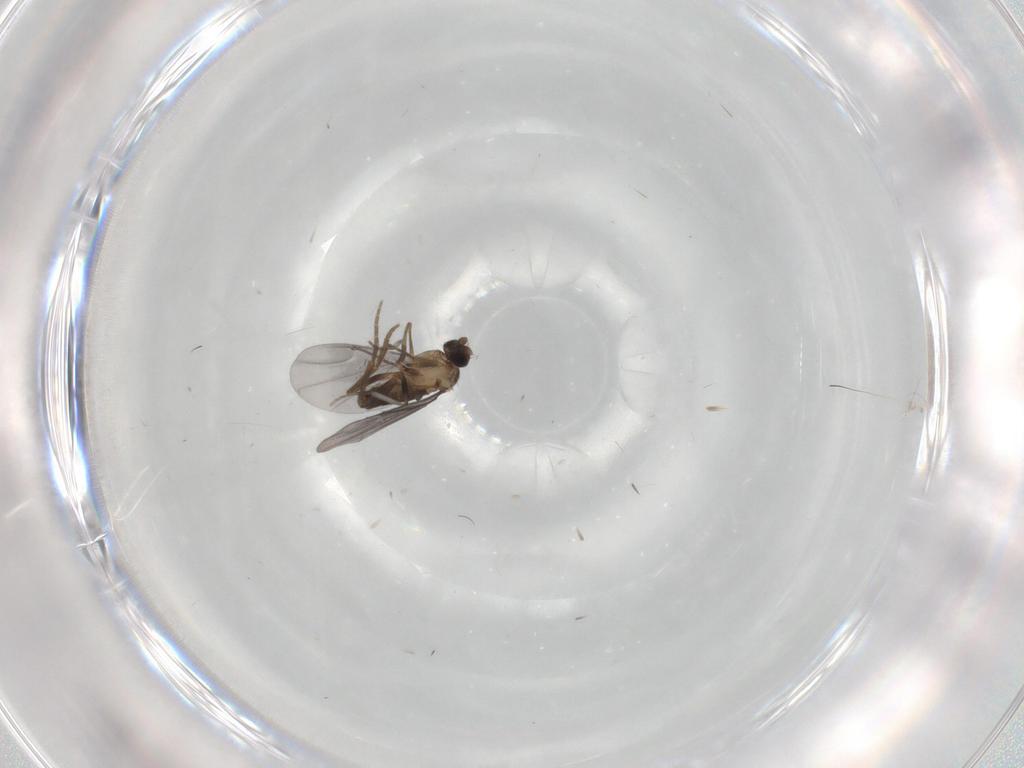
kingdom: Animalia
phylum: Arthropoda
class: Insecta
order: Diptera
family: Phoridae
